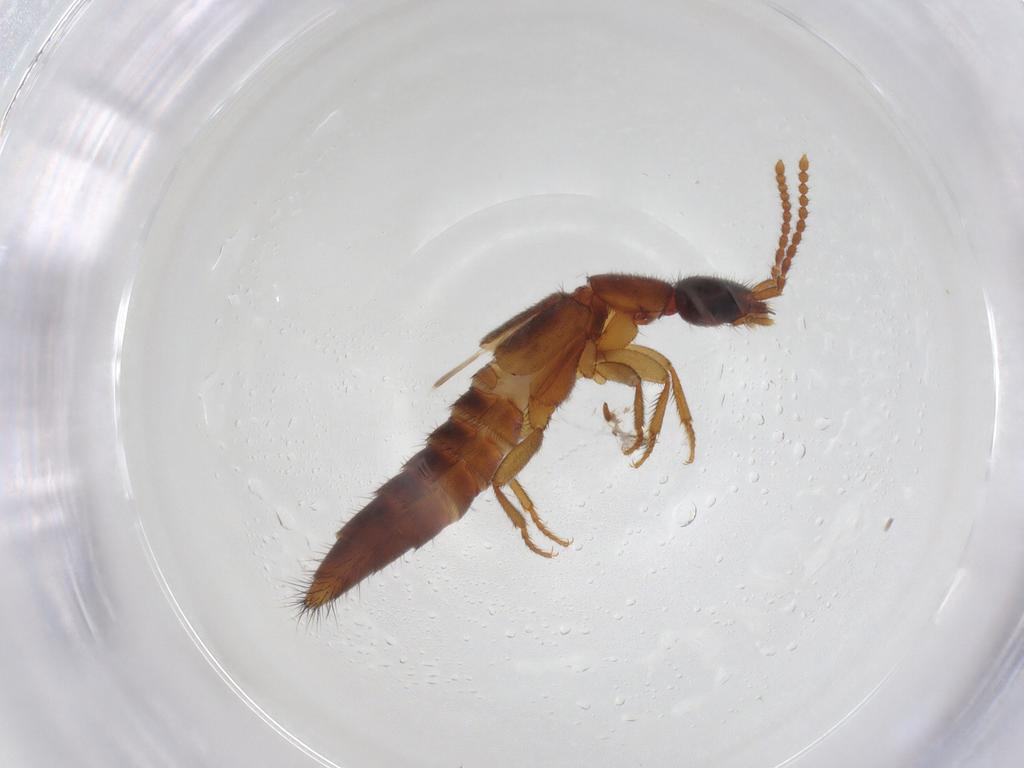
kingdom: Animalia
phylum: Arthropoda
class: Insecta
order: Coleoptera
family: Staphylinidae
